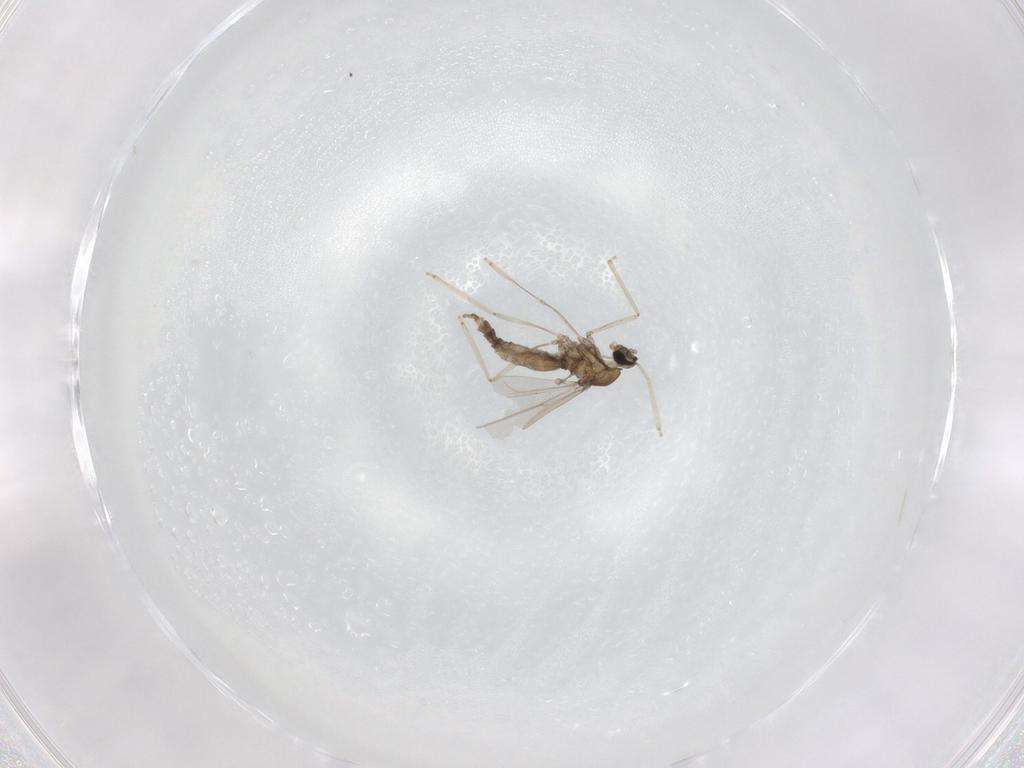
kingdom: Animalia
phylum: Arthropoda
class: Insecta
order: Diptera
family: Cecidomyiidae
